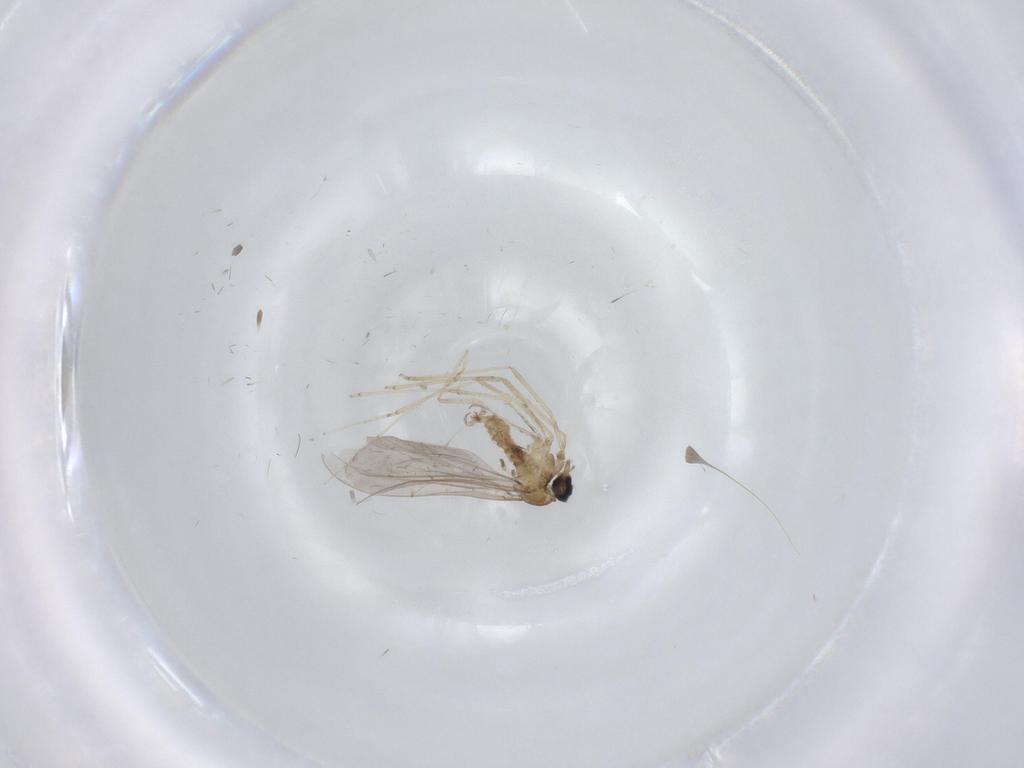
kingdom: Animalia
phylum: Arthropoda
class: Insecta
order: Diptera
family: Cecidomyiidae
